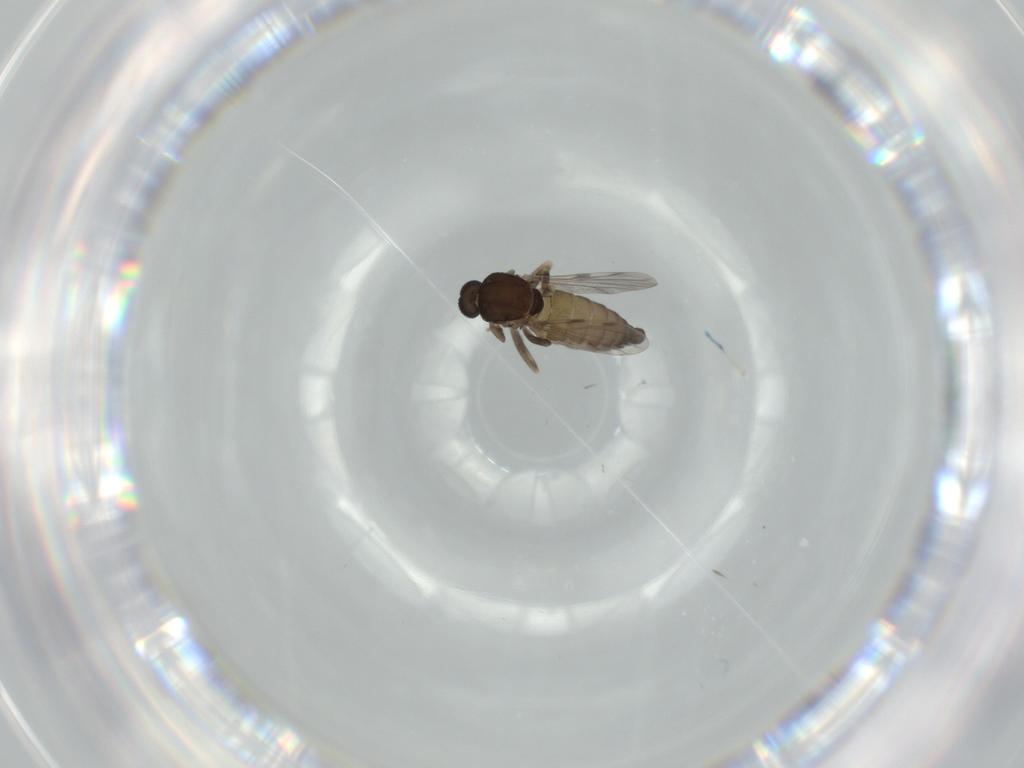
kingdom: Animalia
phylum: Arthropoda
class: Insecta
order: Diptera
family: Ceratopogonidae
